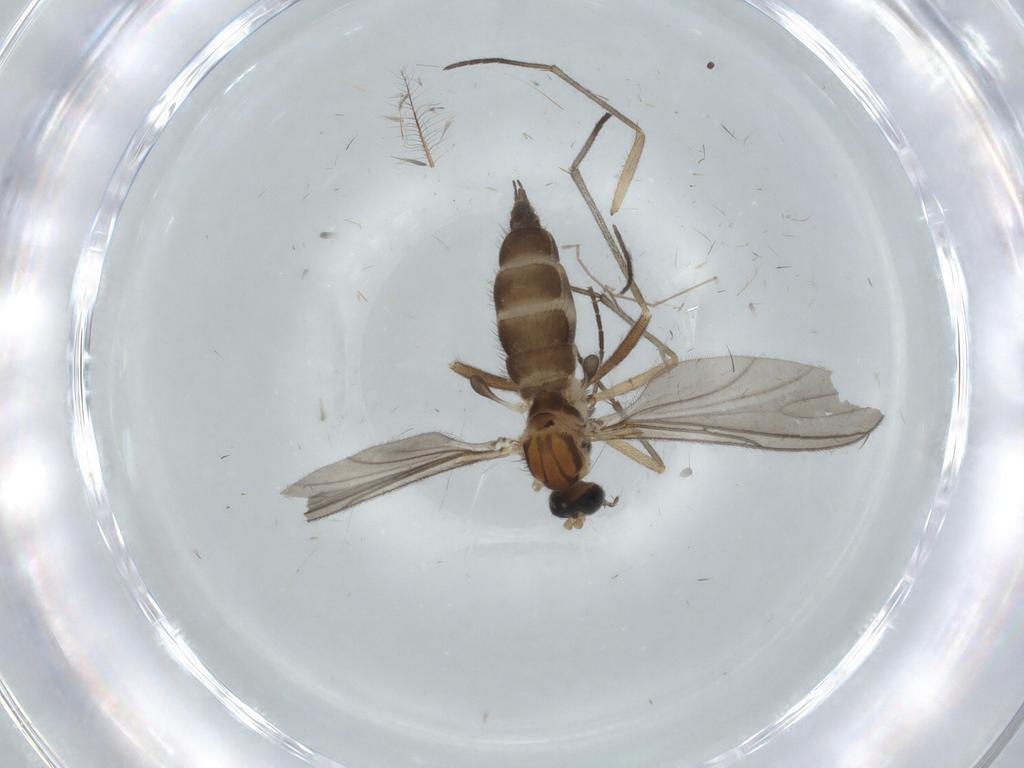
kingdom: Animalia
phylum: Arthropoda
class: Insecta
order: Diptera
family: Sciaridae
